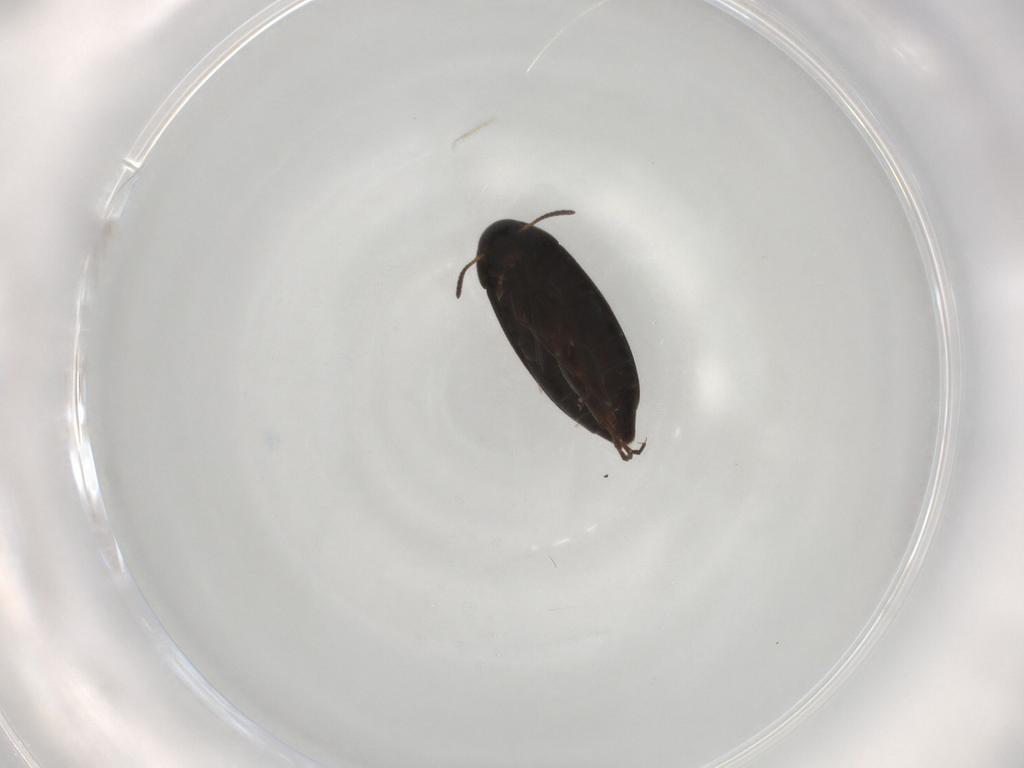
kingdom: Animalia
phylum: Arthropoda
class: Insecta
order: Coleoptera
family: Scraptiidae
